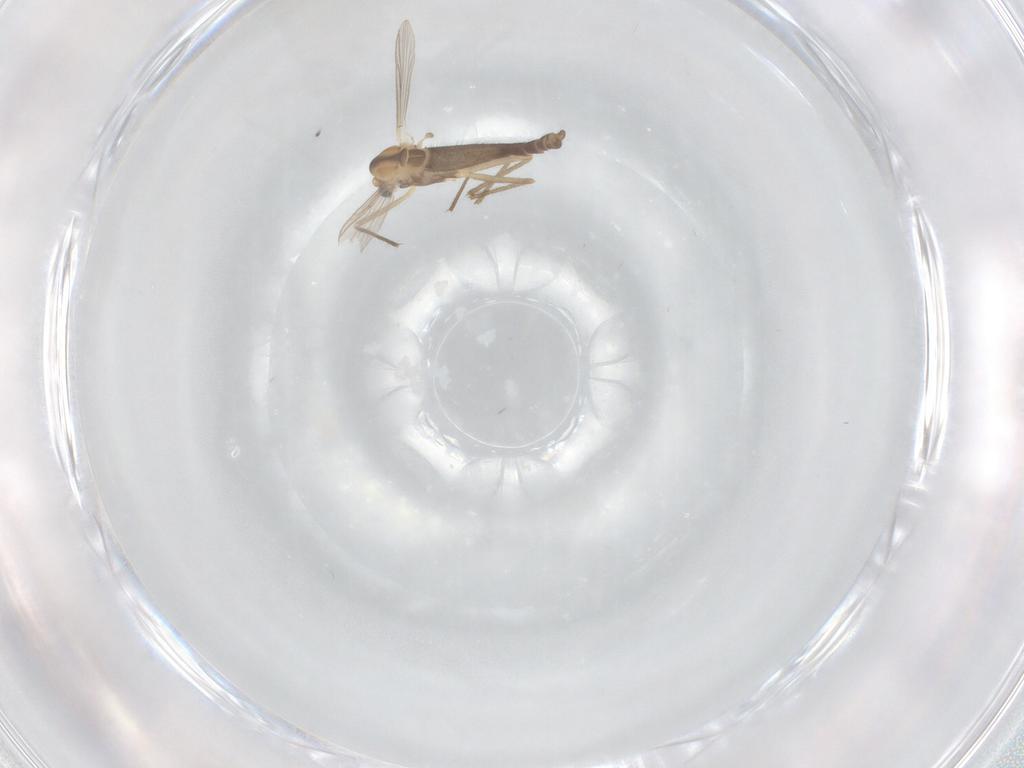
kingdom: Animalia
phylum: Arthropoda
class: Insecta
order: Diptera
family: Chironomidae
